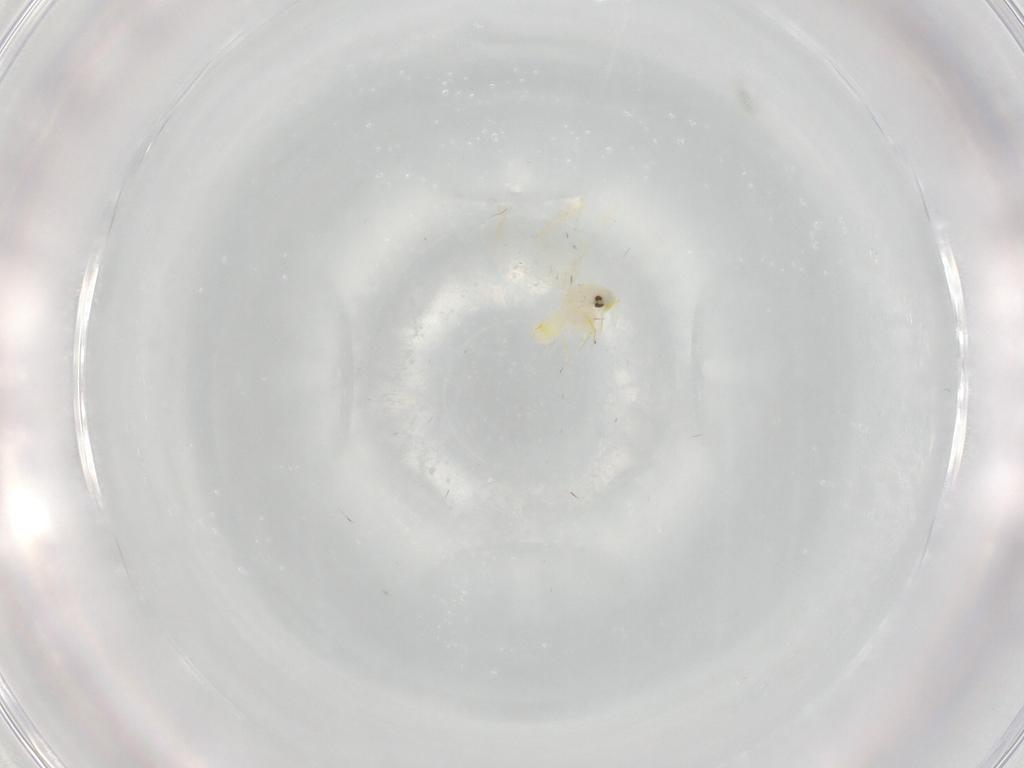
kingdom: Animalia
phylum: Arthropoda
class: Insecta
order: Hemiptera
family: Aleyrodidae
